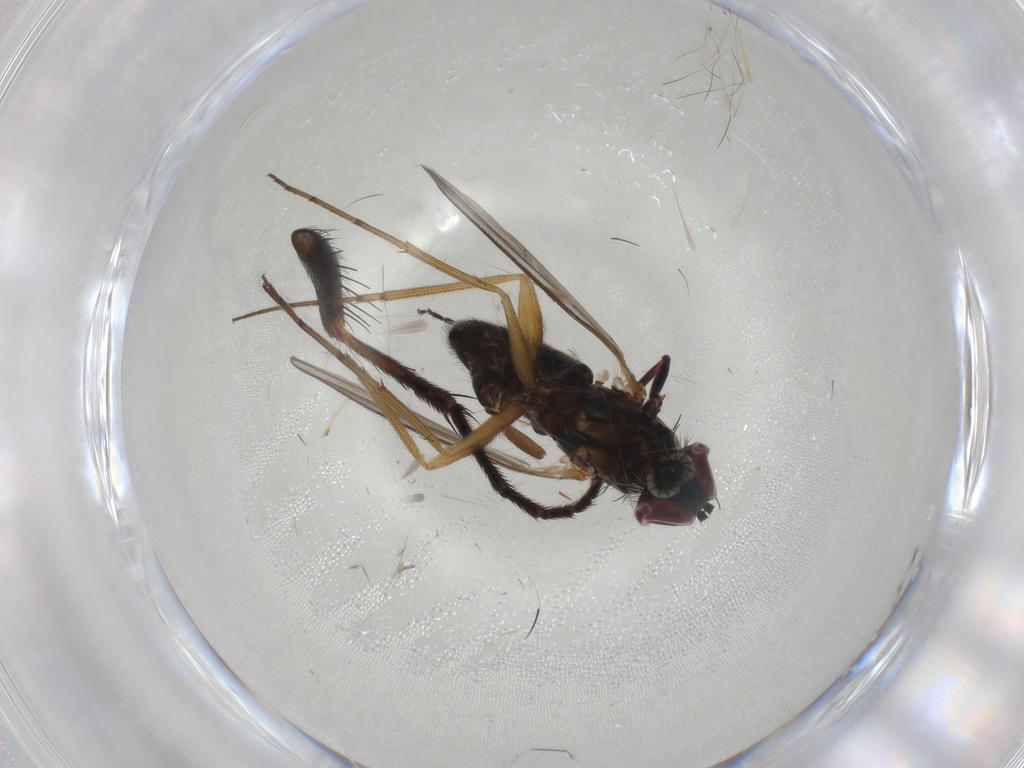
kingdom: Animalia
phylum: Arthropoda
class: Insecta
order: Diptera
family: Dolichopodidae
